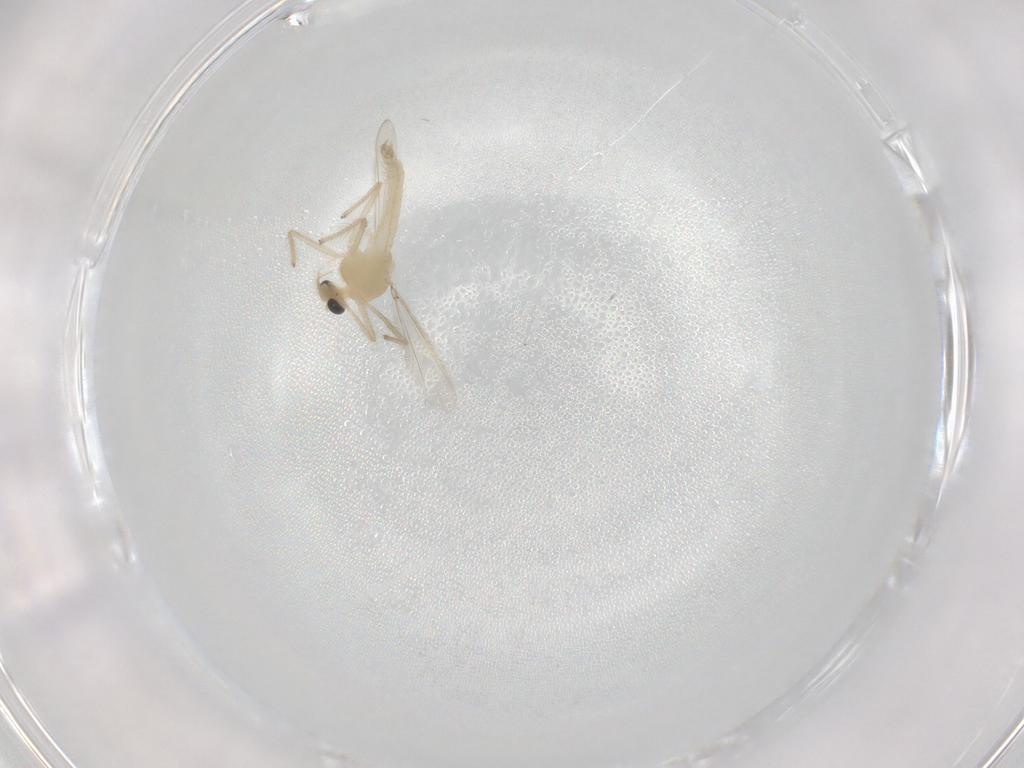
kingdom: Animalia
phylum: Arthropoda
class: Insecta
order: Diptera
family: Chironomidae
